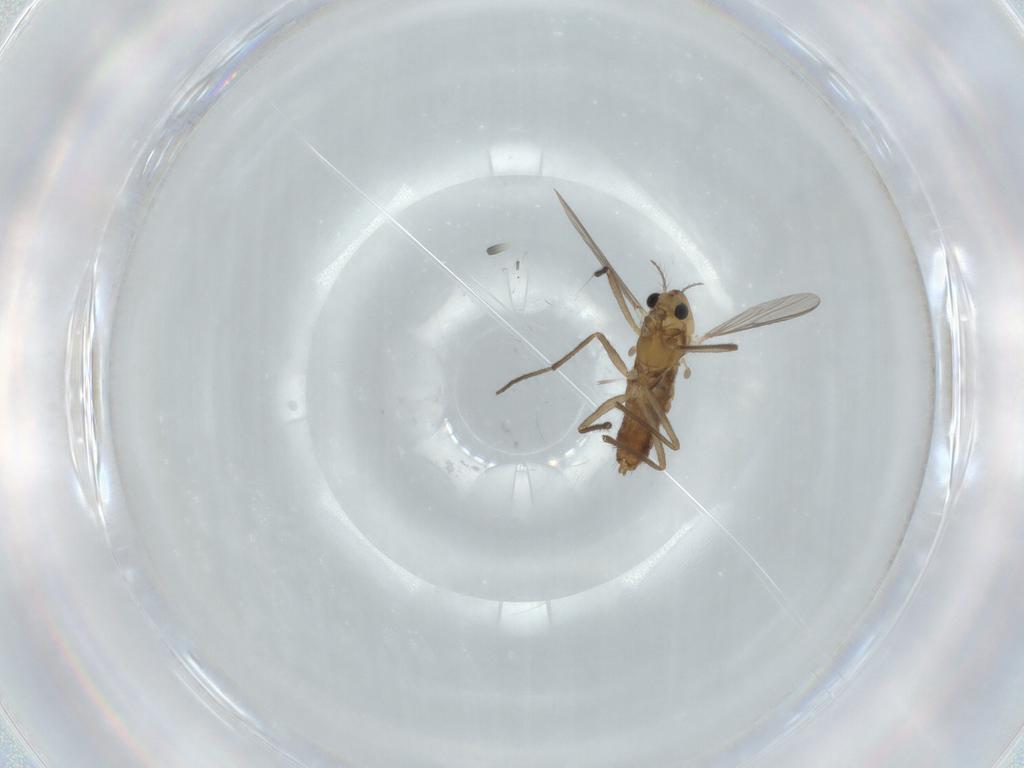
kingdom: Animalia
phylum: Arthropoda
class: Insecta
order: Diptera
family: Chironomidae
